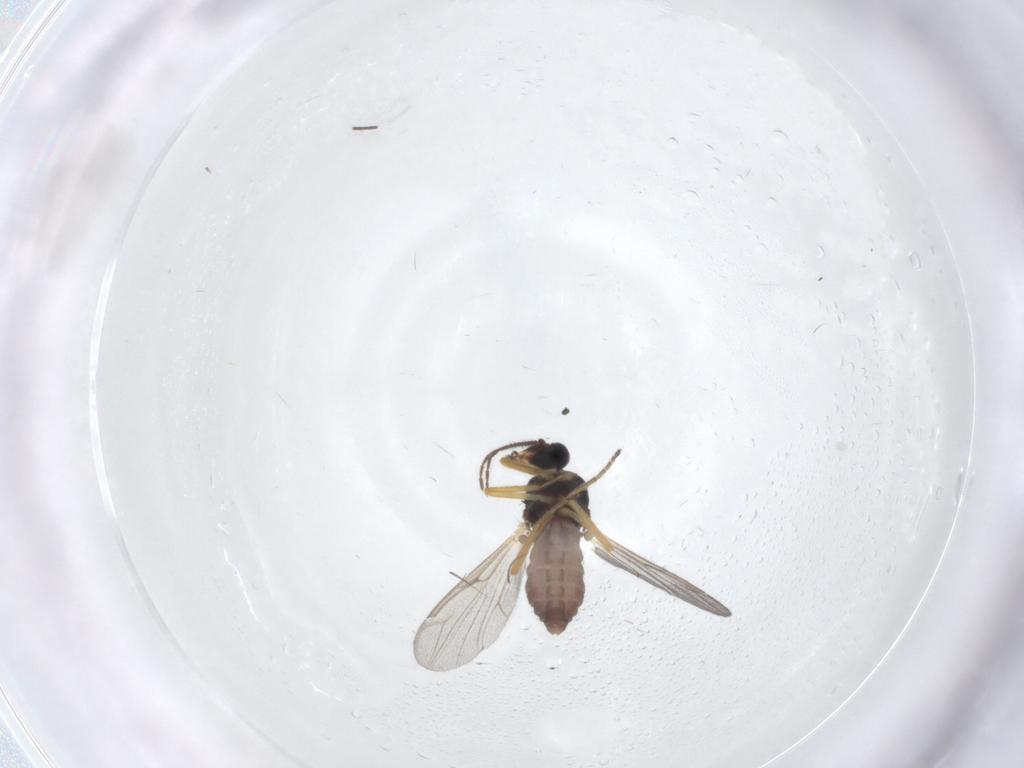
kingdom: Animalia
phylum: Arthropoda
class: Insecta
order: Diptera
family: Ceratopogonidae
